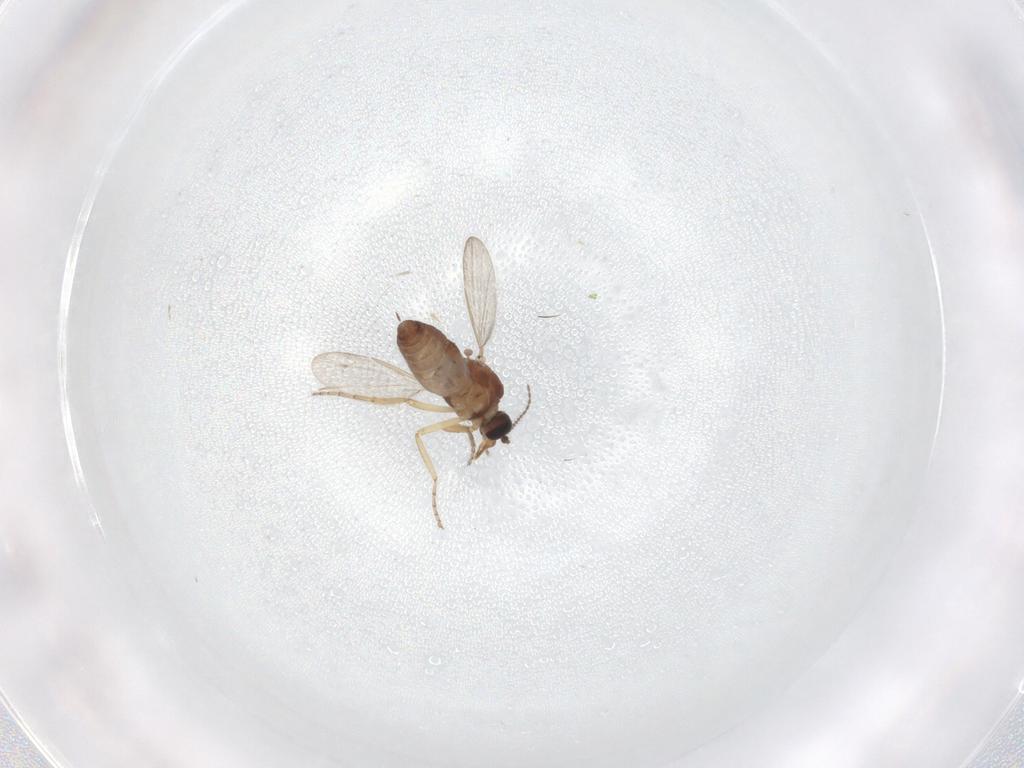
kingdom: Animalia
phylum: Arthropoda
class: Insecta
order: Diptera
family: Ceratopogonidae
